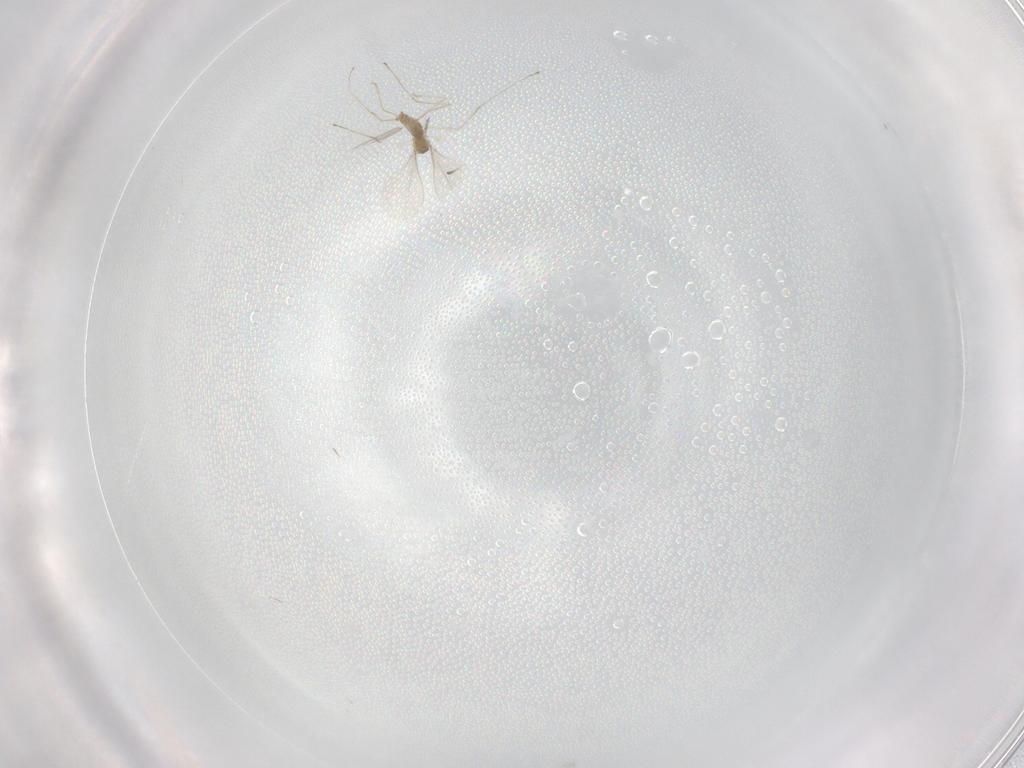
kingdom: Animalia
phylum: Arthropoda
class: Insecta
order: Diptera
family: Cecidomyiidae
